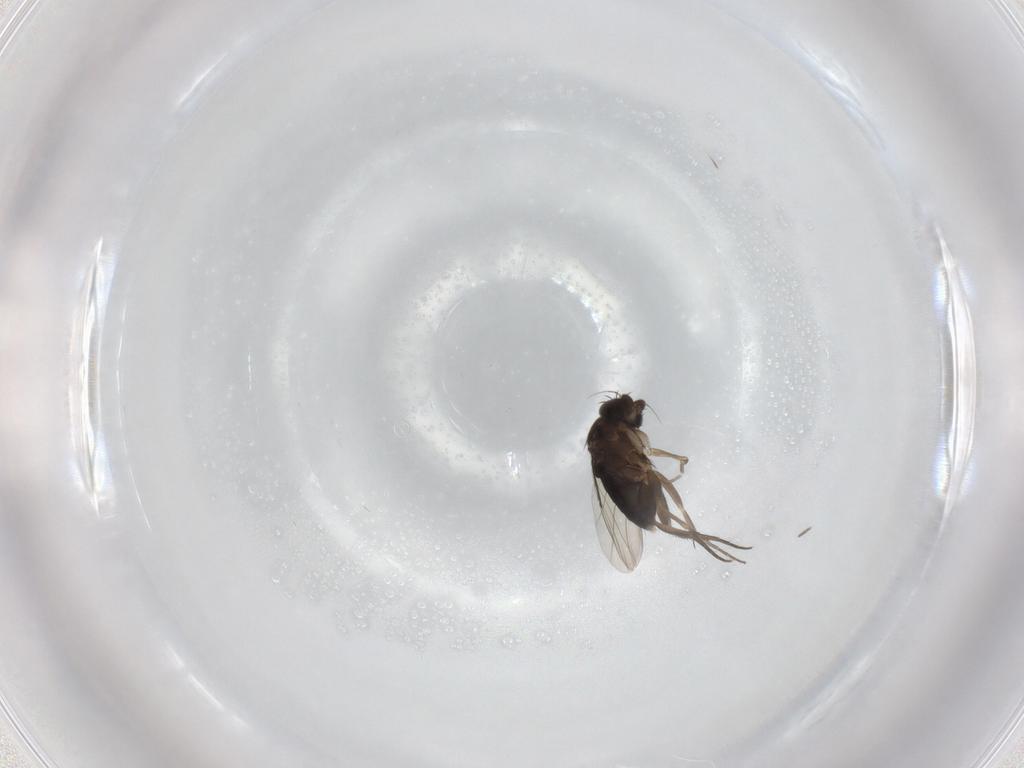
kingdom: Animalia
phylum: Arthropoda
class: Insecta
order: Diptera
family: Phoridae
